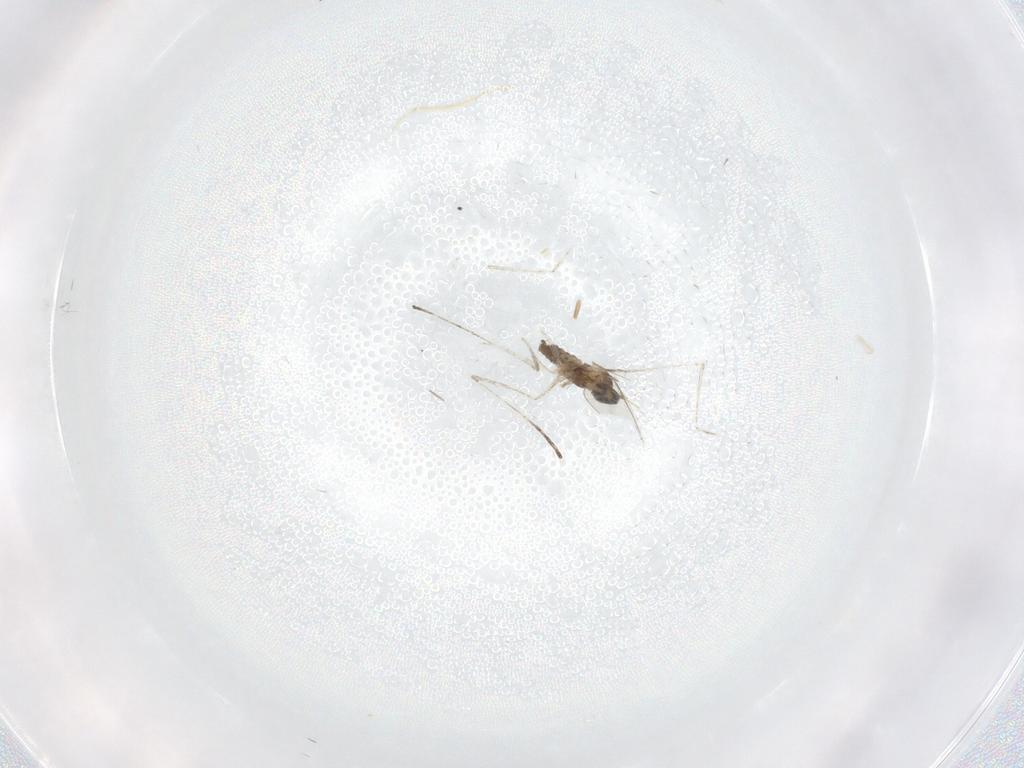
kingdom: Animalia
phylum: Arthropoda
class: Insecta
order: Diptera
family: Cecidomyiidae
